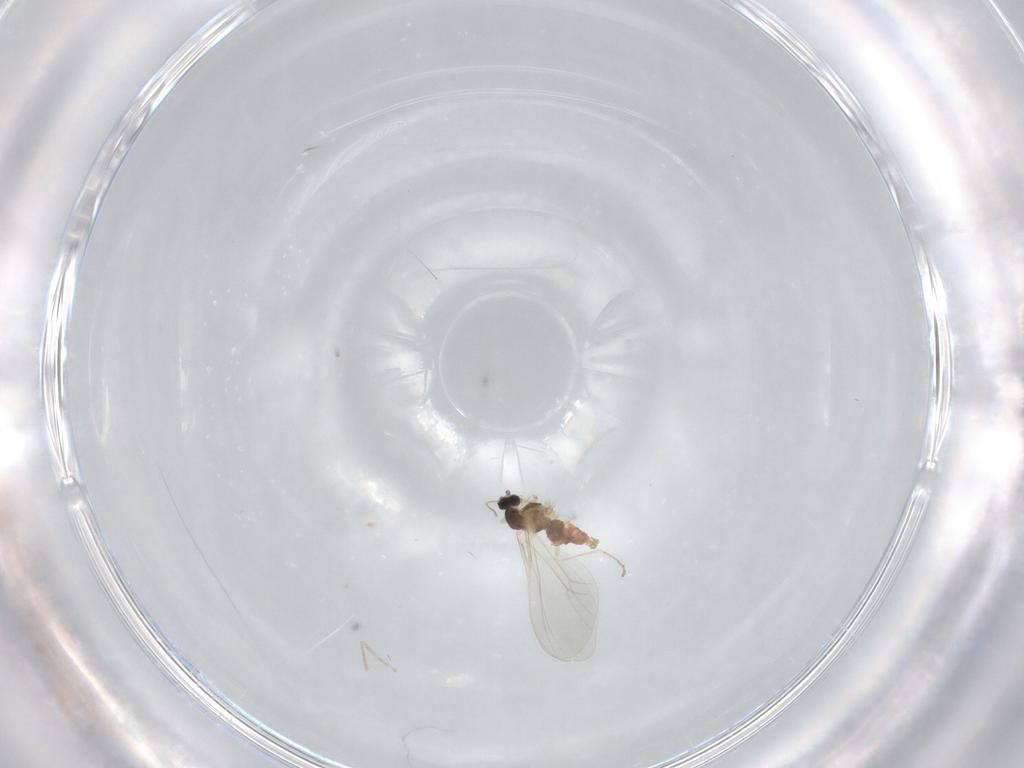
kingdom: Animalia
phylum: Arthropoda
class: Insecta
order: Diptera
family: Cecidomyiidae
